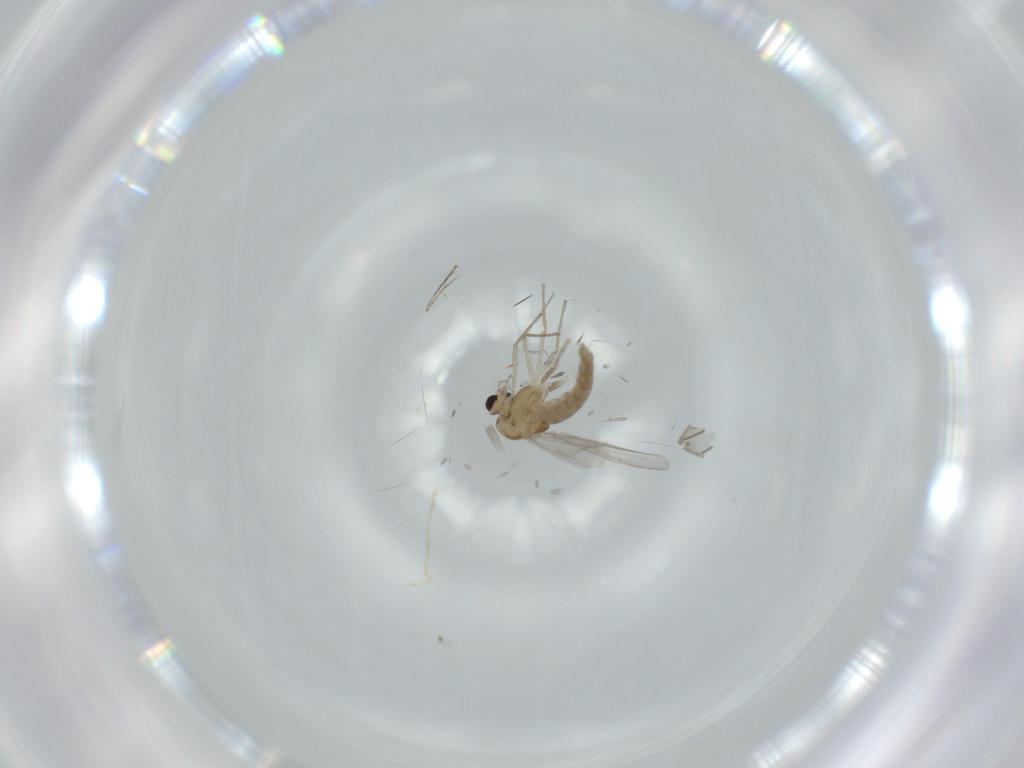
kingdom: Animalia
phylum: Arthropoda
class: Insecta
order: Diptera
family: Chironomidae
